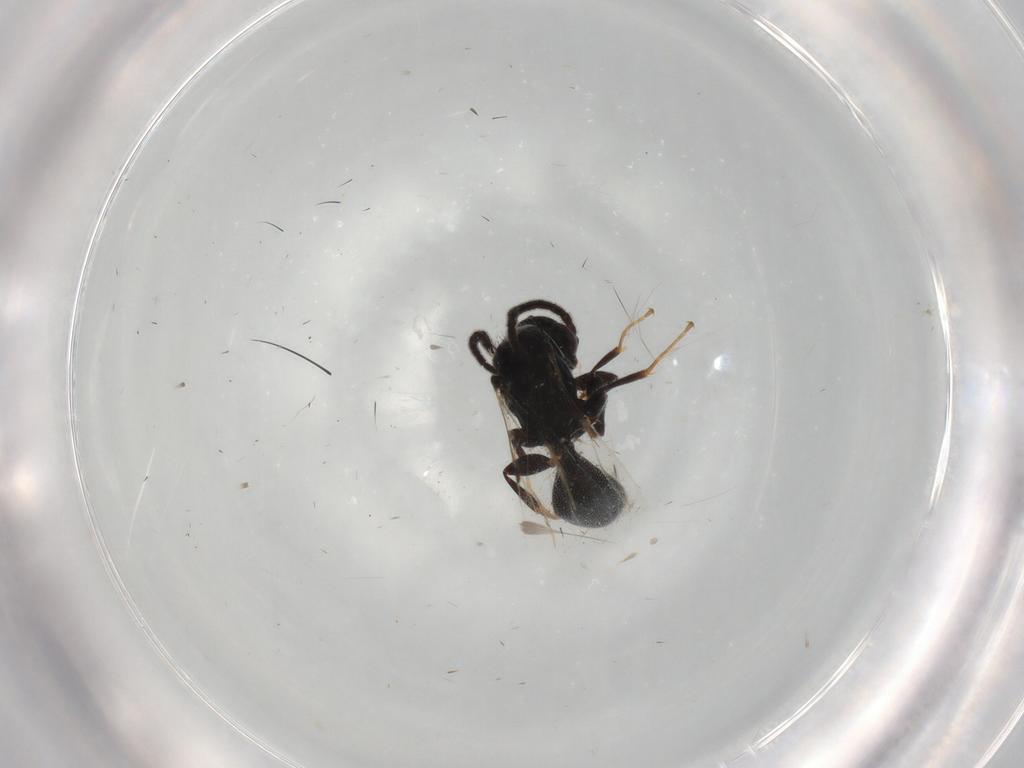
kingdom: Animalia
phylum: Arthropoda
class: Insecta
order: Hymenoptera
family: Bethylidae
